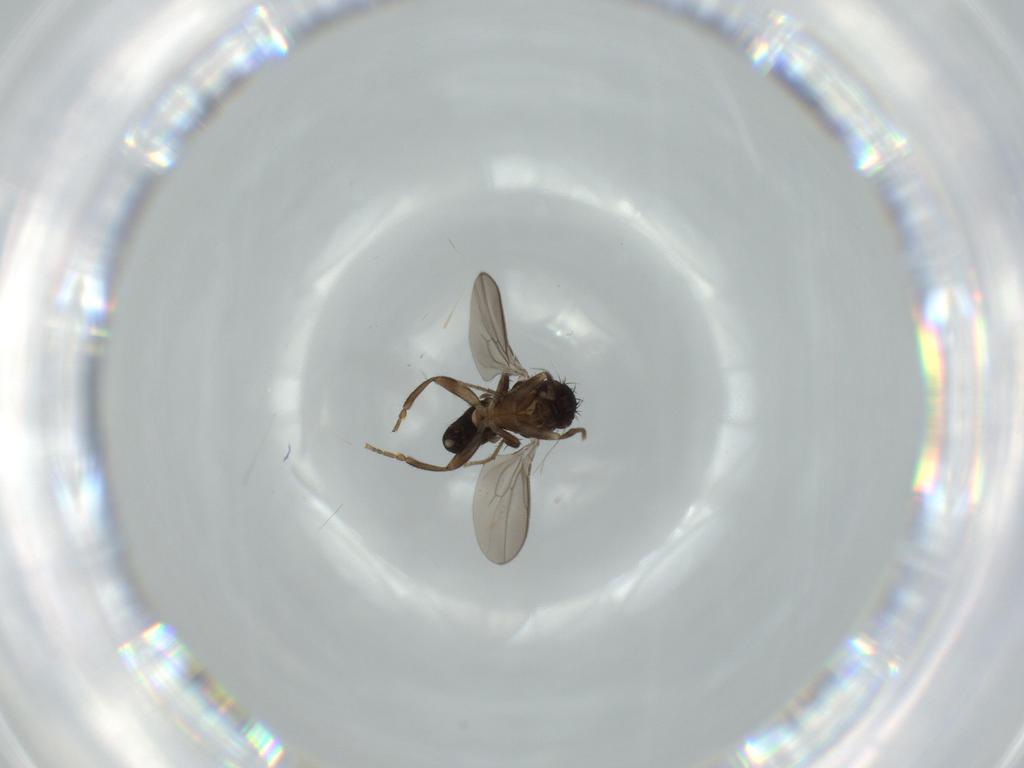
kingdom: Animalia
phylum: Arthropoda
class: Insecta
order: Diptera
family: Sphaeroceridae
